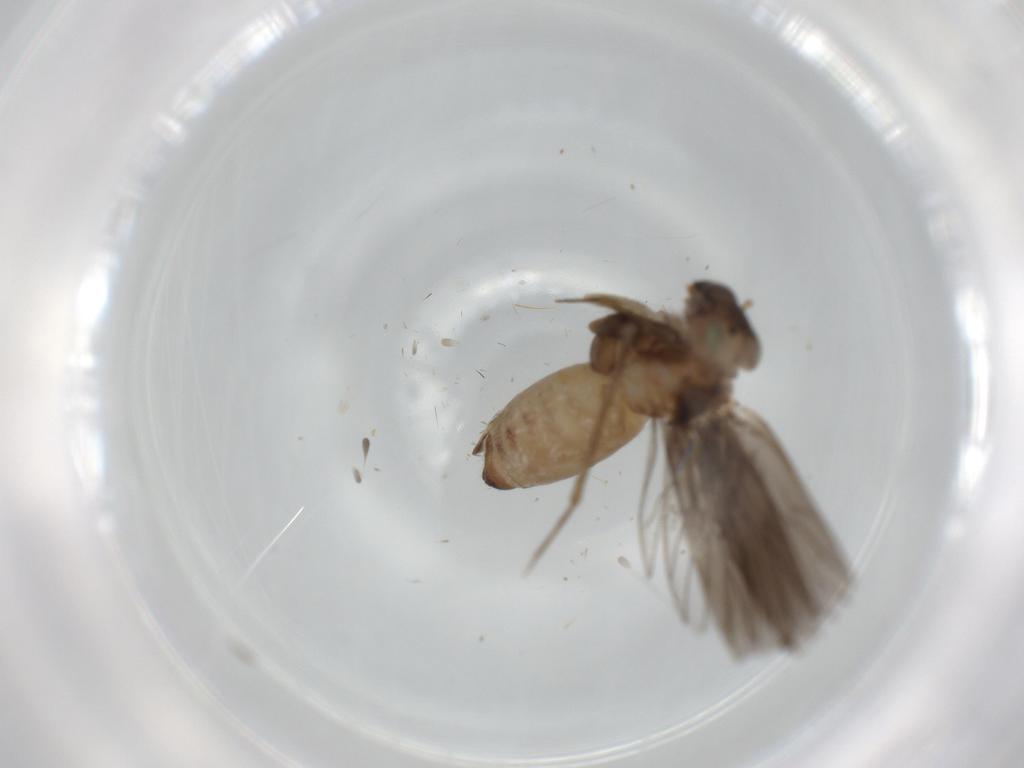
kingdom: Animalia
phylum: Arthropoda
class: Insecta
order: Psocodea
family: Lepidopsocidae
